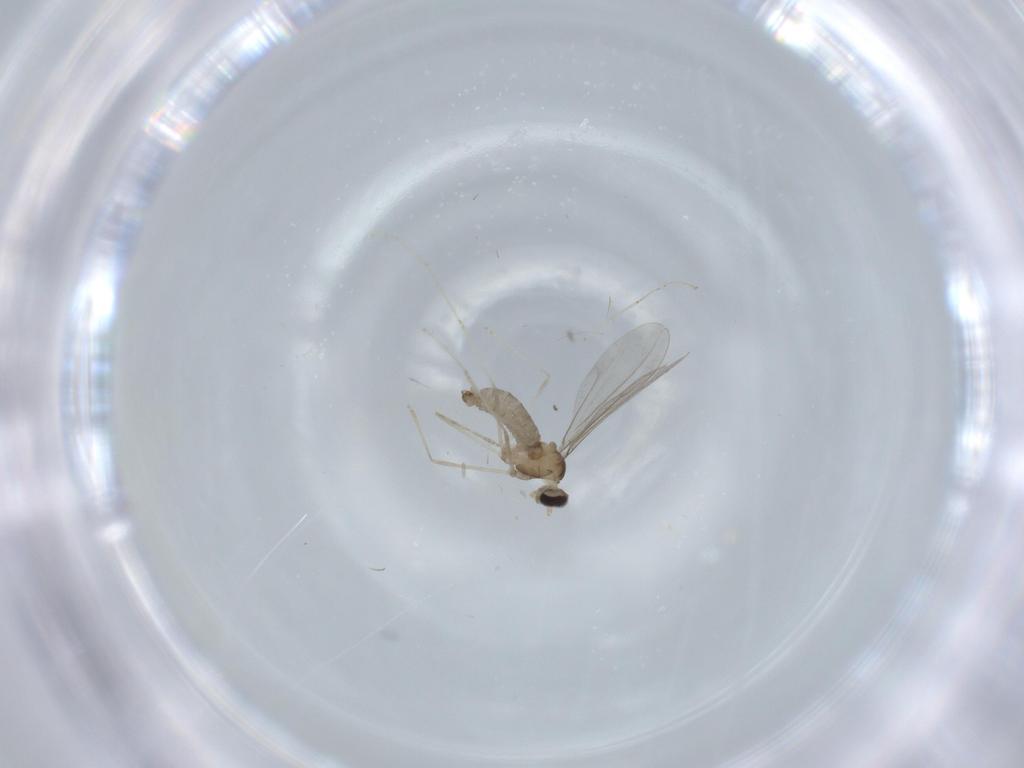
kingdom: Animalia
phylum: Arthropoda
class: Insecta
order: Diptera
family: Cecidomyiidae
